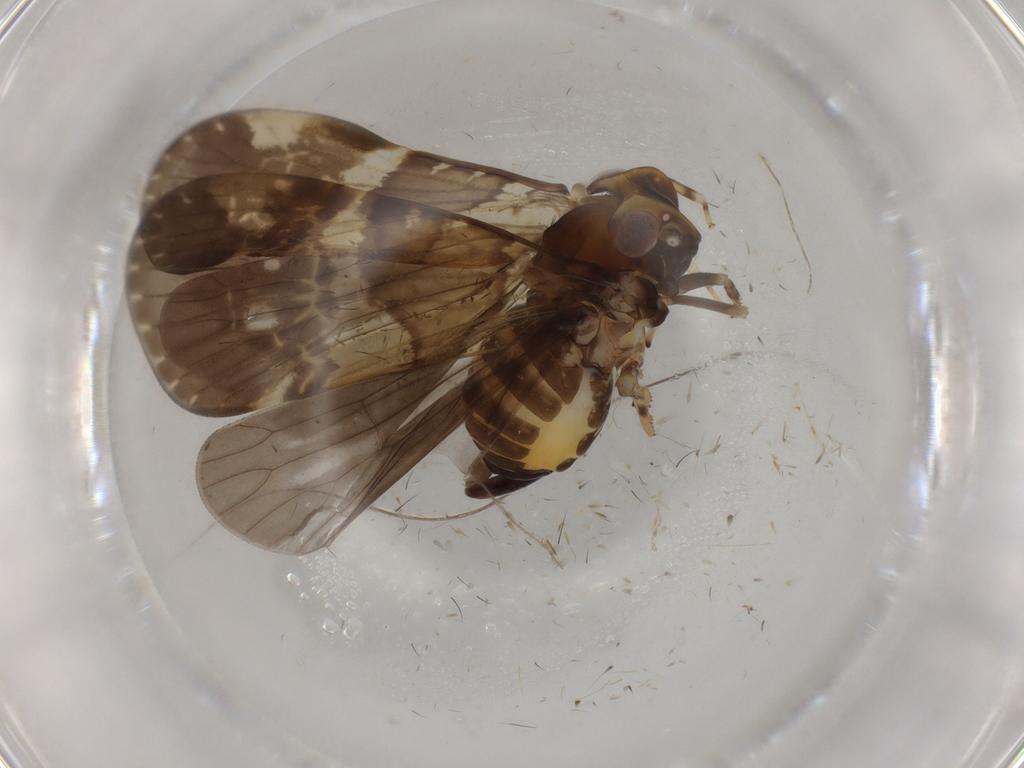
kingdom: Animalia
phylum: Arthropoda
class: Insecta
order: Hemiptera
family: Cixiidae
